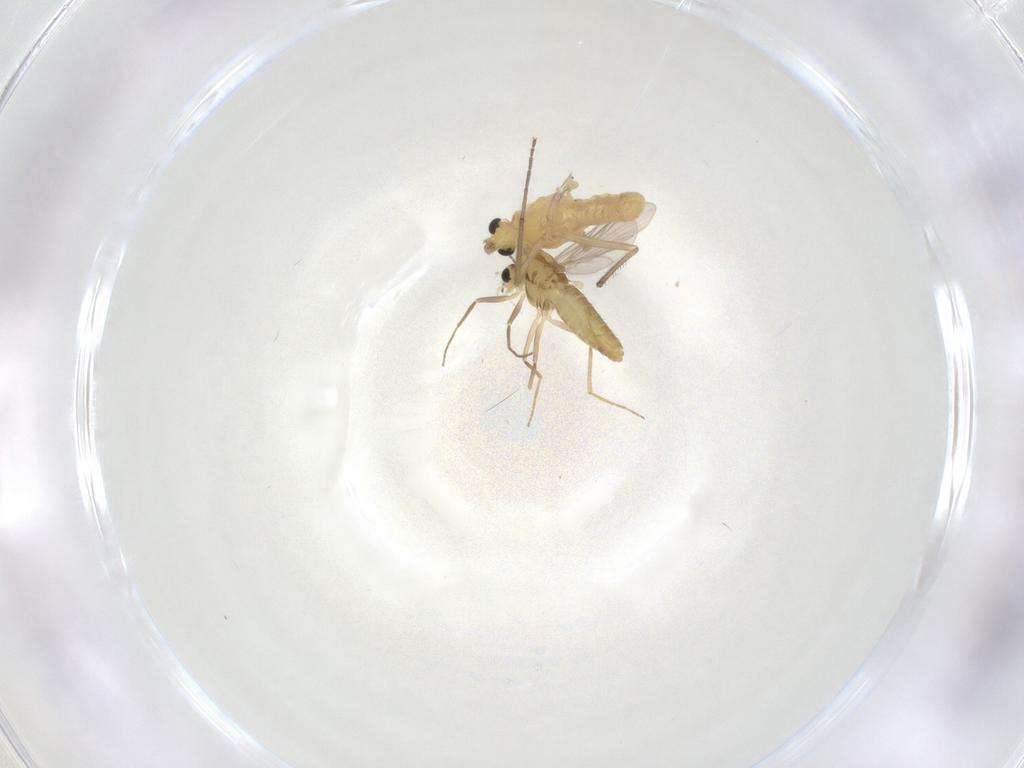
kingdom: Animalia
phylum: Arthropoda
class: Insecta
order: Diptera
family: Chironomidae
